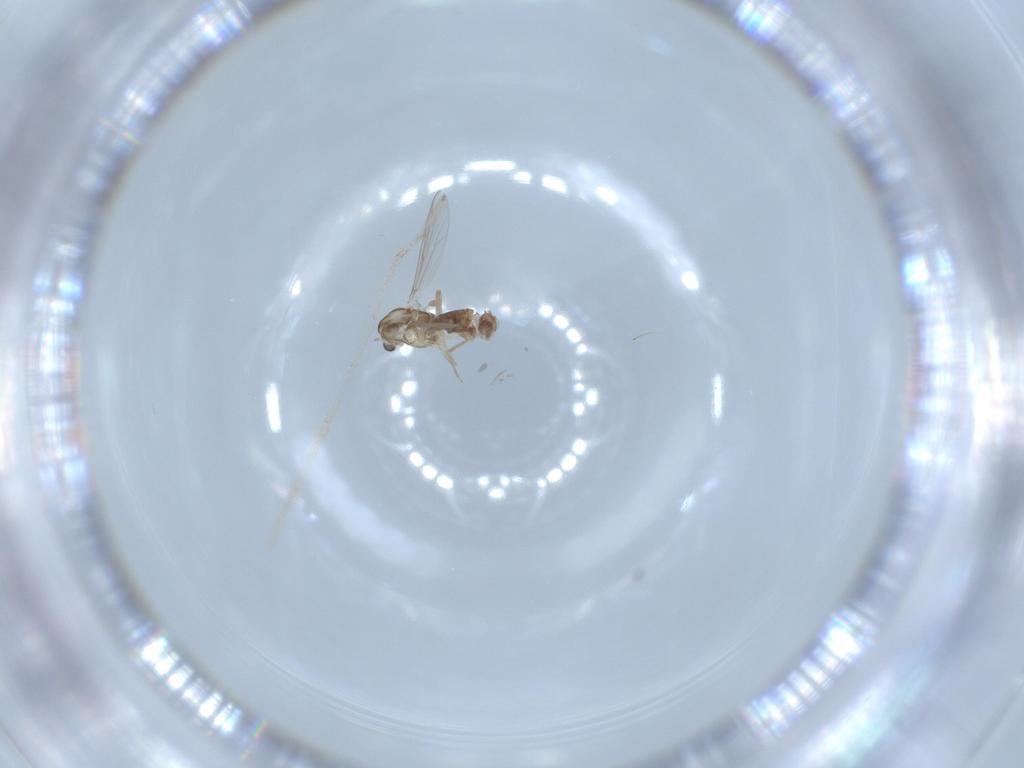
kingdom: Animalia
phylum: Arthropoda
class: Insecta
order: Diptera
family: Chironomidae
